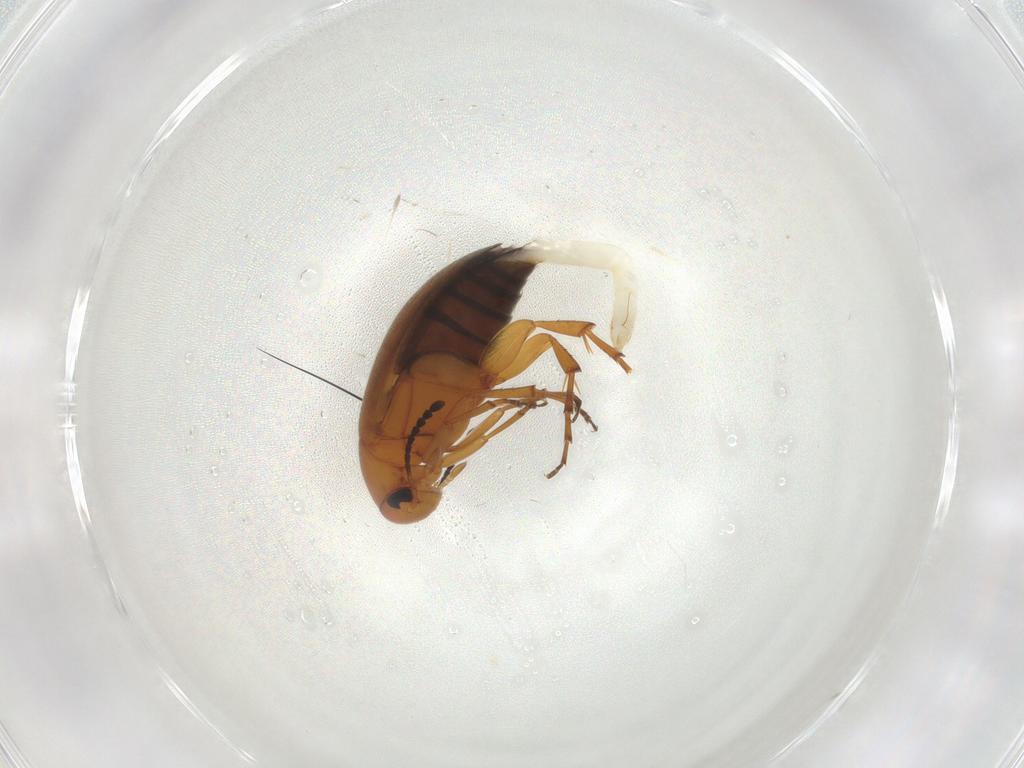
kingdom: Animalia
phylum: Arthropoda
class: Insecta
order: Coleoptera
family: Scraptiidae
